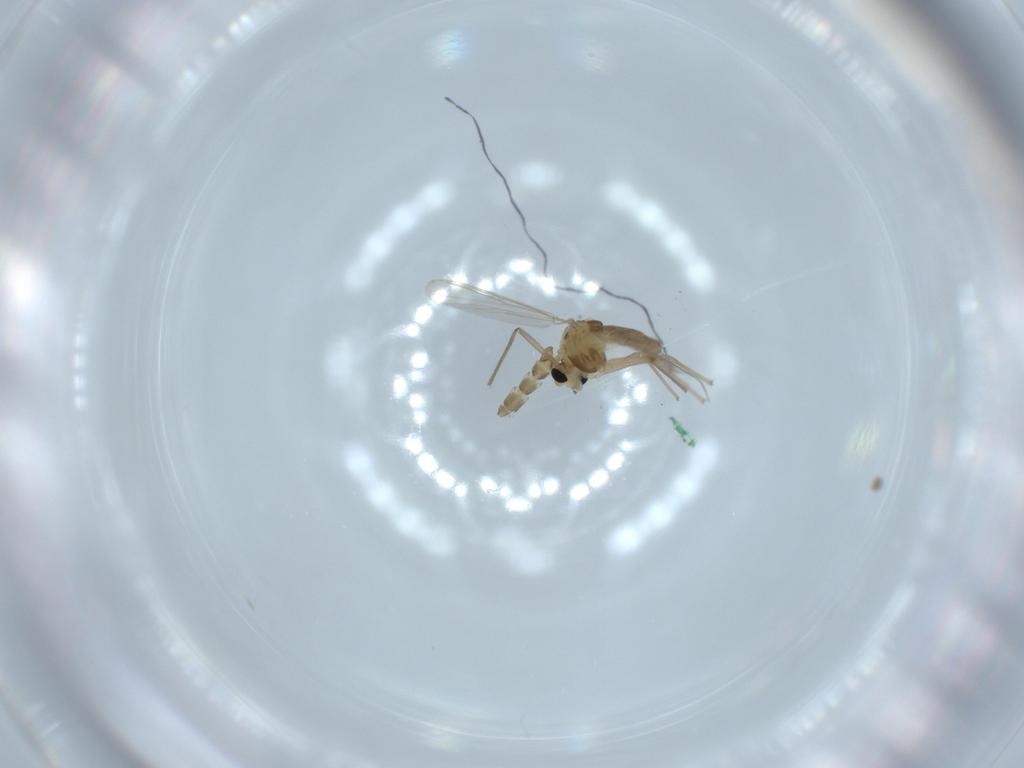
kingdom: Animalia
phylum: Arthropoda
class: Insecta
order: Diptera
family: Chironomidae
